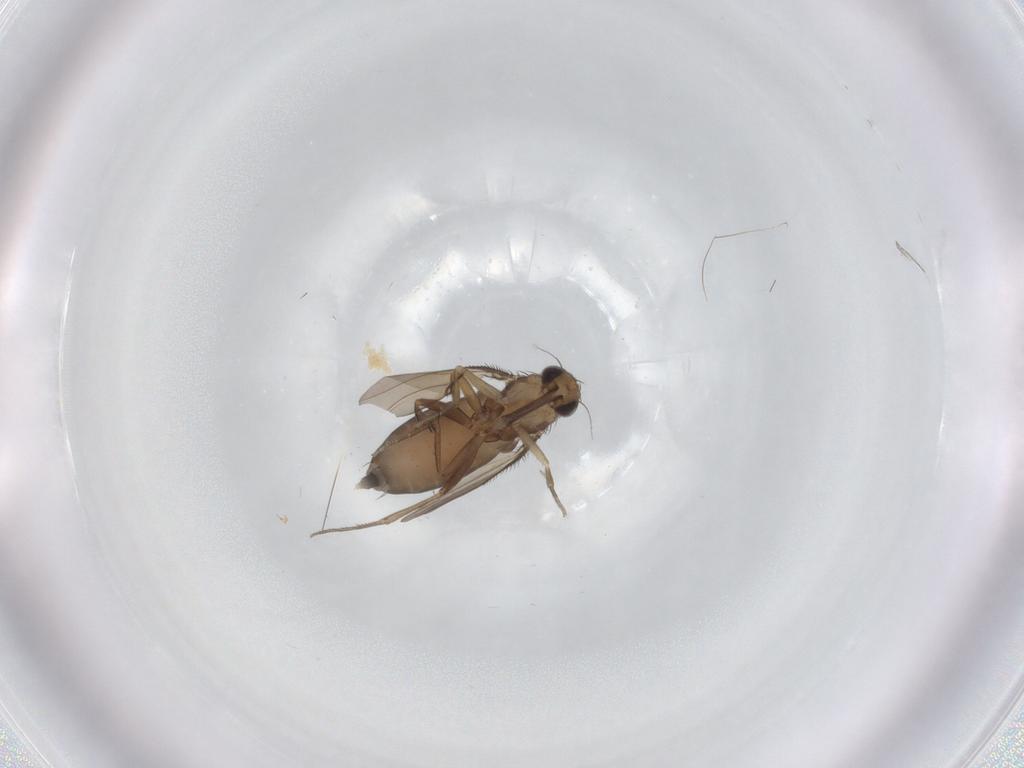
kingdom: Animalia
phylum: Arthropoda
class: Insecta
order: Diptera
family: Phoridae
